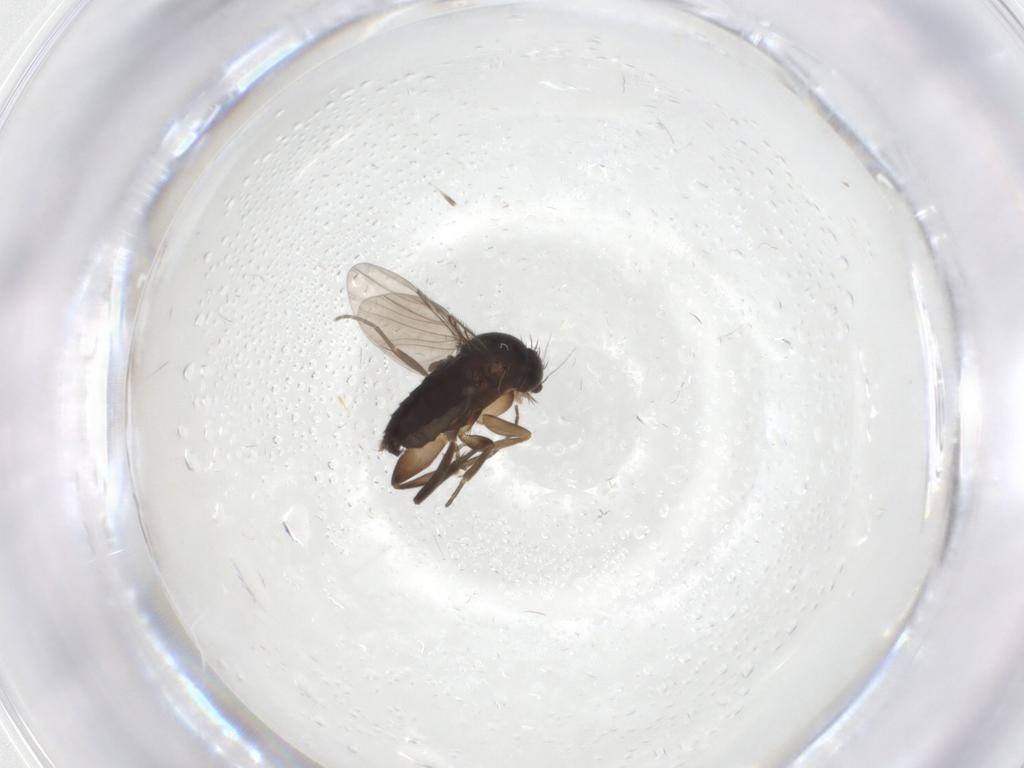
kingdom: Animalia
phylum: Arthropoda
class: Insecta
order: Diptera
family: Phoridae
